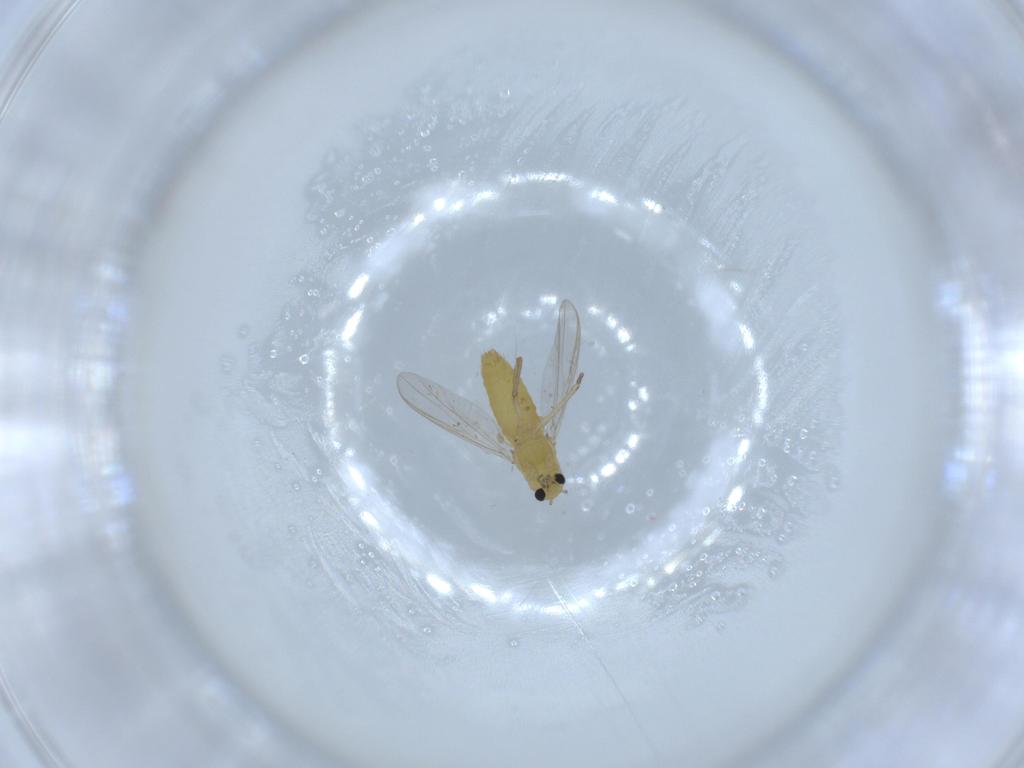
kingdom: Animalia
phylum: Arthropoda
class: Insecta
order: Diptera
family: Chironomidae
